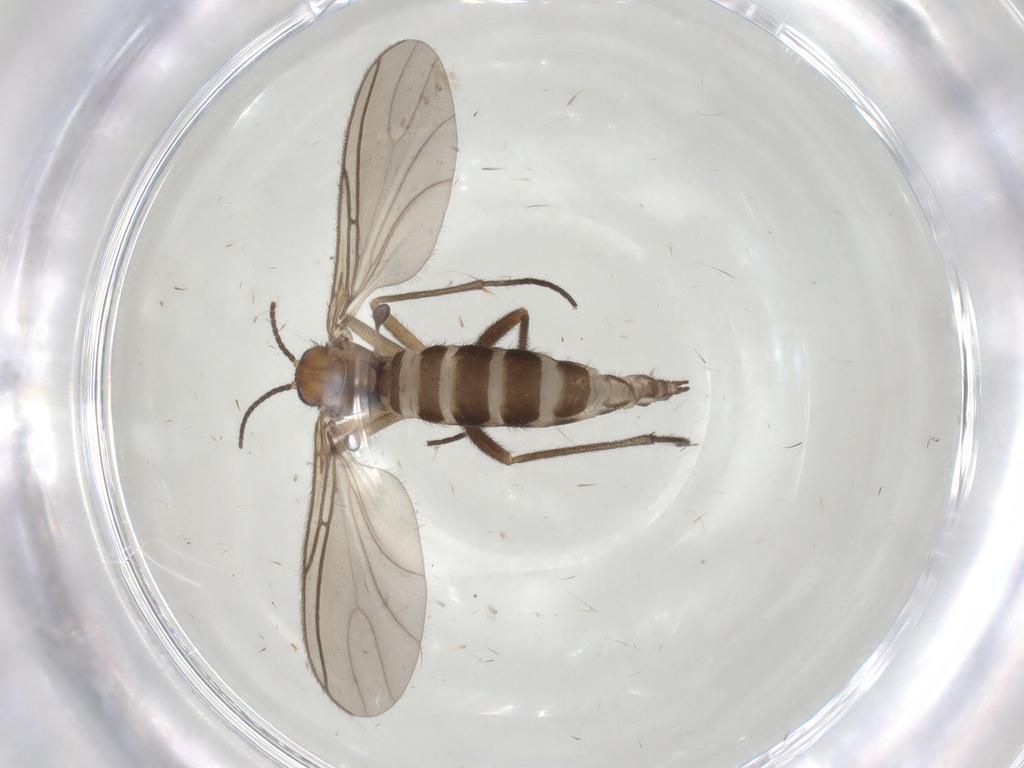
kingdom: Animalia
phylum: Arthropoda
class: Insecta
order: Diptera
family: Sciaridae
